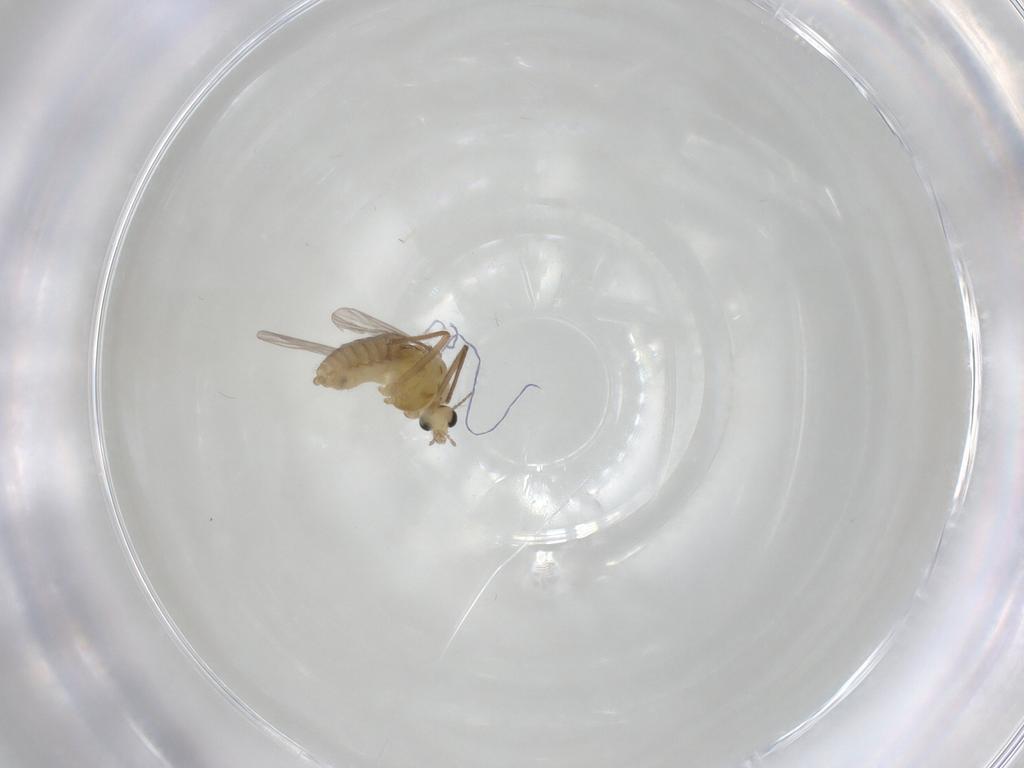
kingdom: Animalia
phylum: Arthropoda
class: Insecta
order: Diptera
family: Chironomidae
